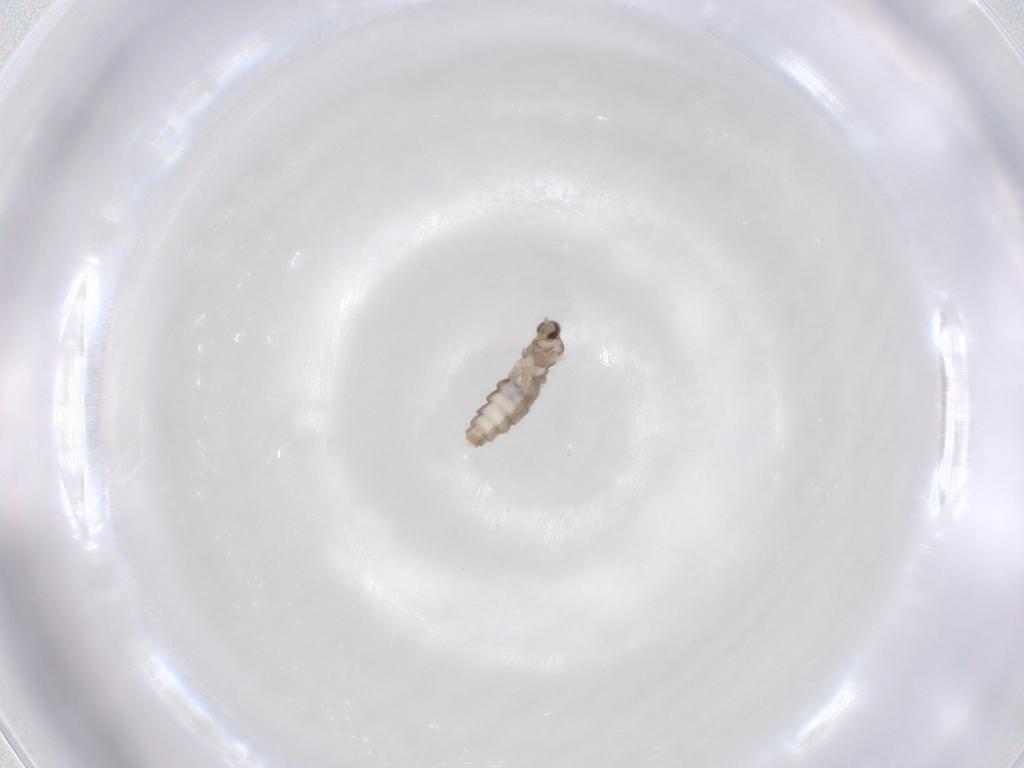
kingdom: Animalia
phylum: Arthropoda
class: Insecta
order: Diptera
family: Cecidomyiidae
